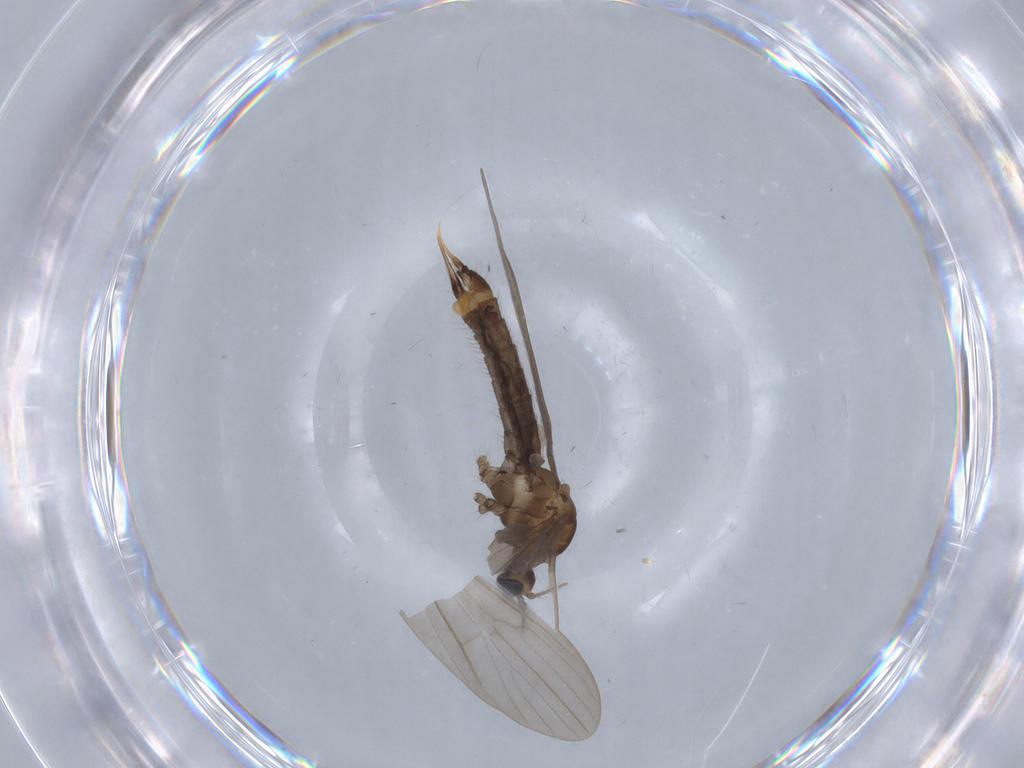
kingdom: Animalia
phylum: Arthropoda
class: Insecta
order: Diptera
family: Limoniidae
